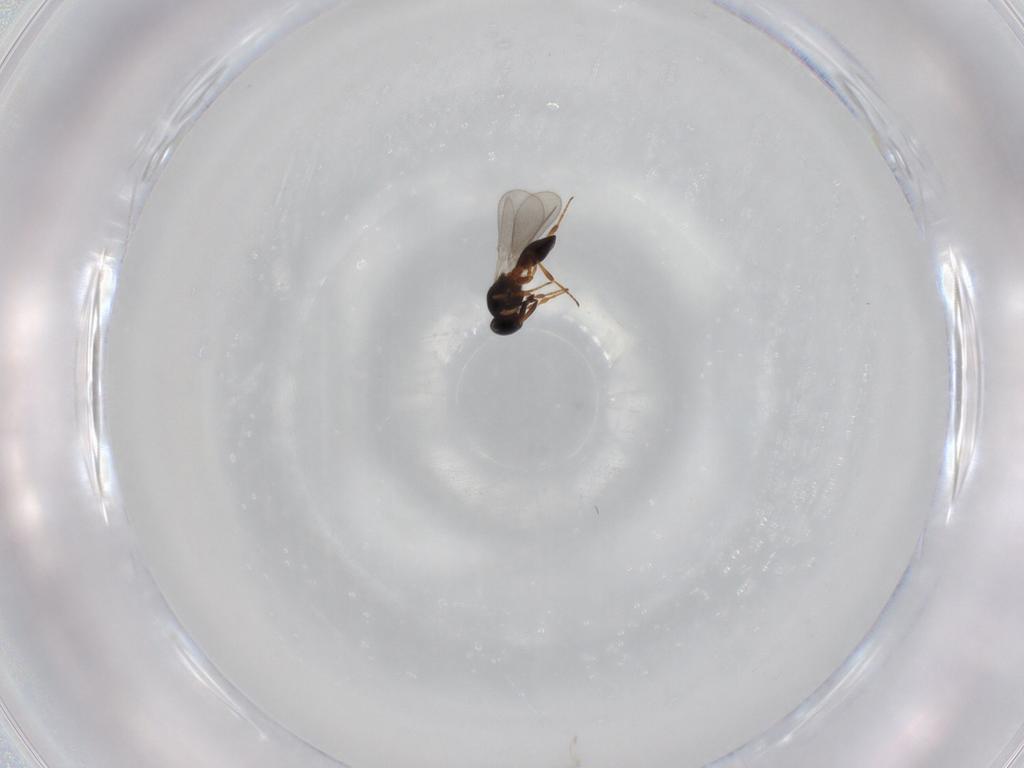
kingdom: Animalia
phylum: Arthropoda
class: Insecta
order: Hymenoptera
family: Platygastridae
